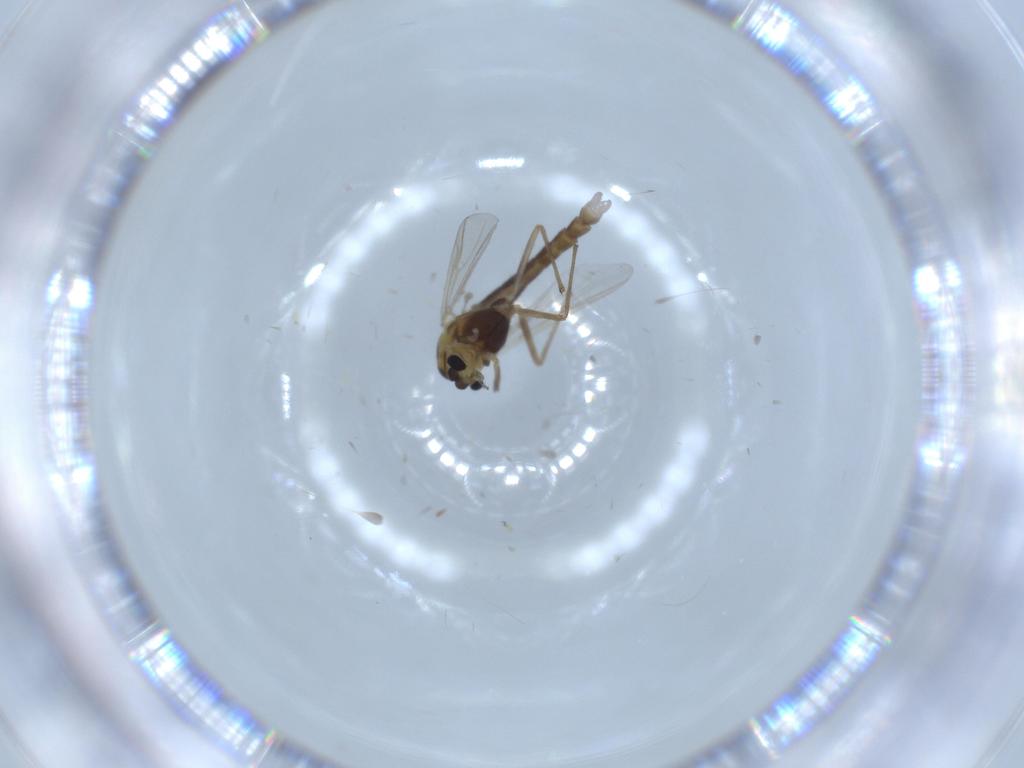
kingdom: Animalia
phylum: Arthropoda
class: Insecta
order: Diptera
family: Chironomidae
